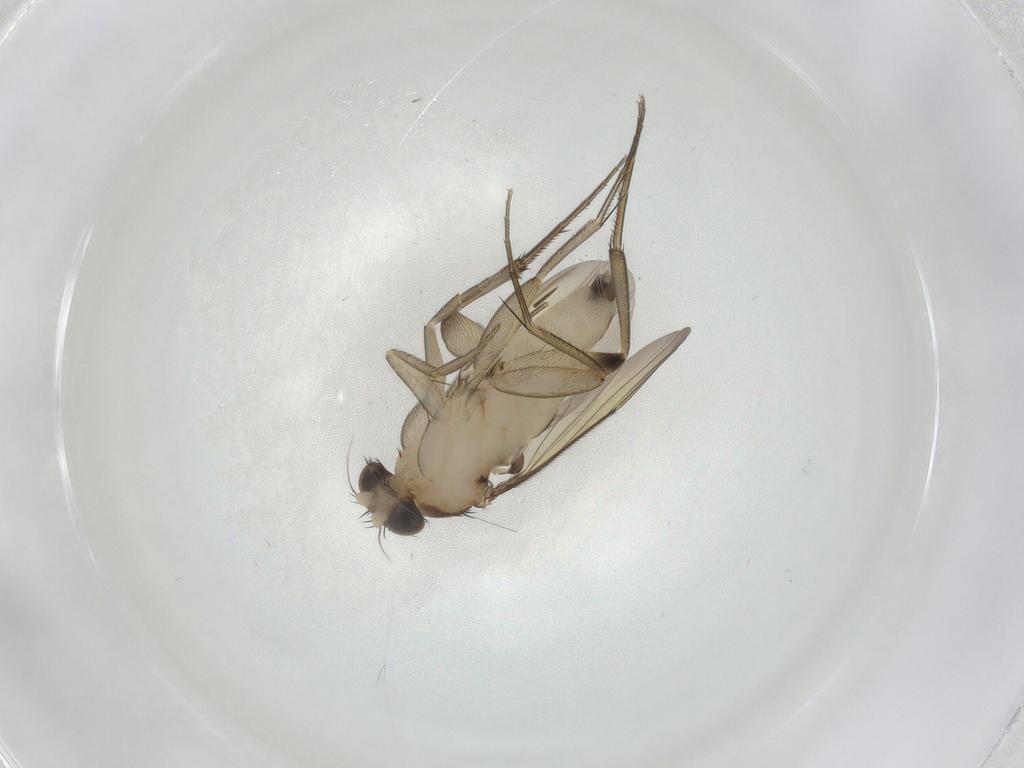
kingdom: Animalia
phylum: Arthropoda
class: Insecta
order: Diptera
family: Phoridae
